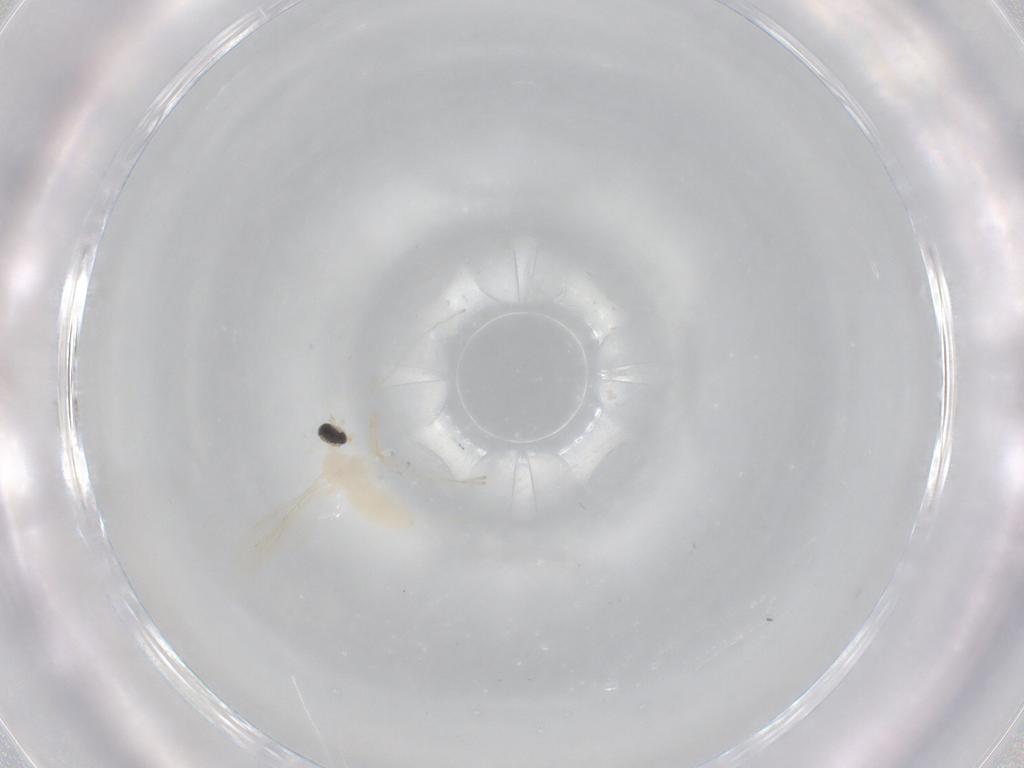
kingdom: Animalia
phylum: Arthropoda
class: Insecta
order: Diptera
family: Cecidomyiidae
